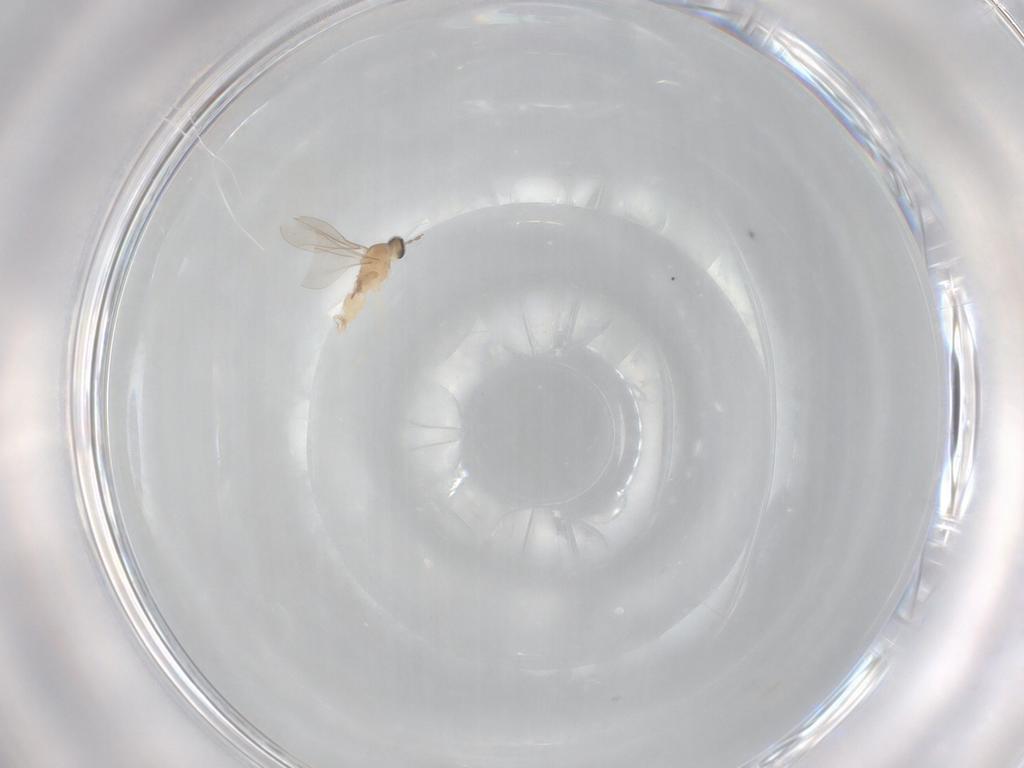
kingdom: Animalia
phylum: Arthropoda
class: Insecta
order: Diptera
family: Cecidomyiidae
